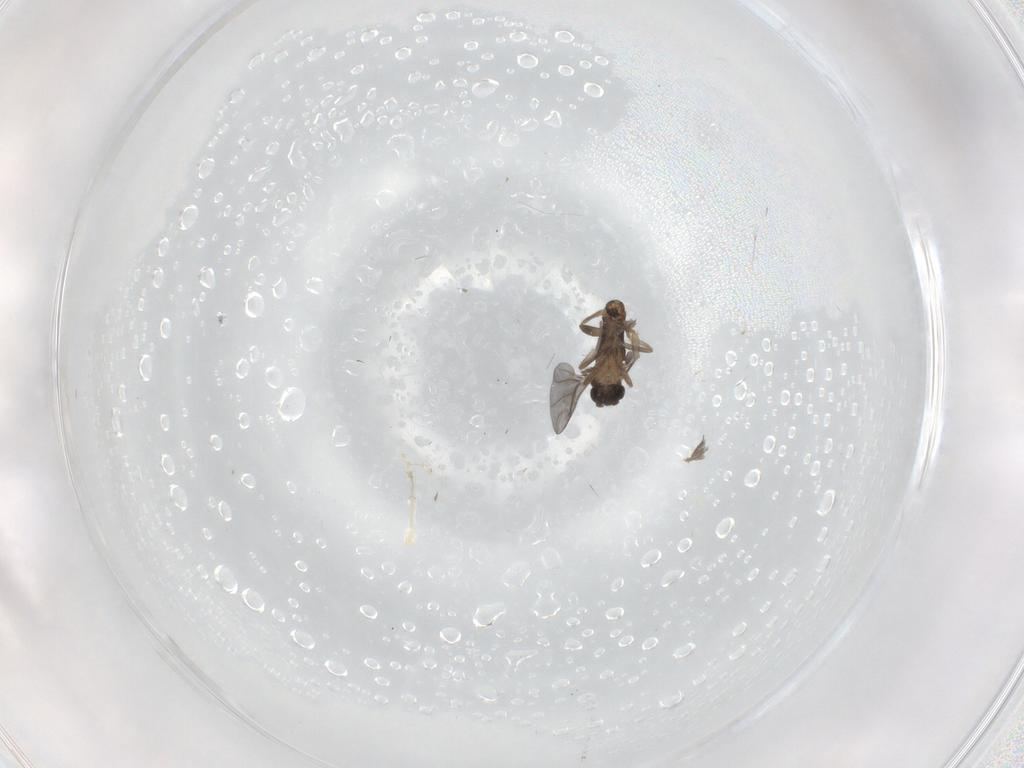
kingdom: Animalia
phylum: Arthropoda
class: Insecta
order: Diptera
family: Chironomidae
